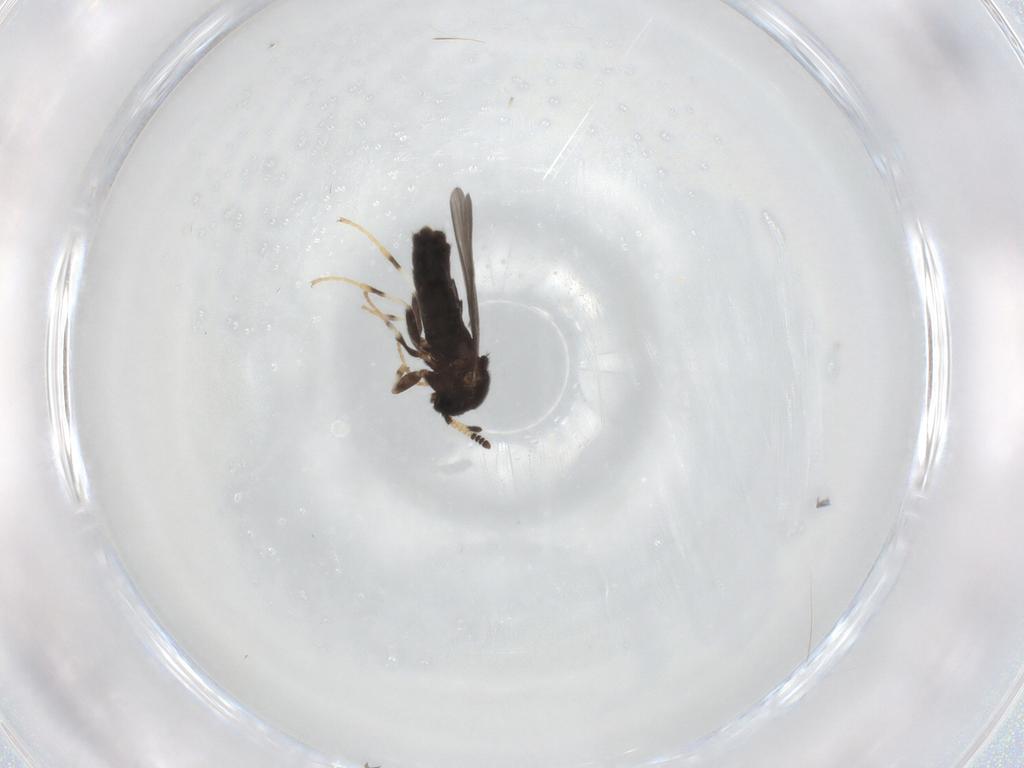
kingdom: Animalia
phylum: Arthropoda
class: Insecta
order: Diptera
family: Scatopsidae
